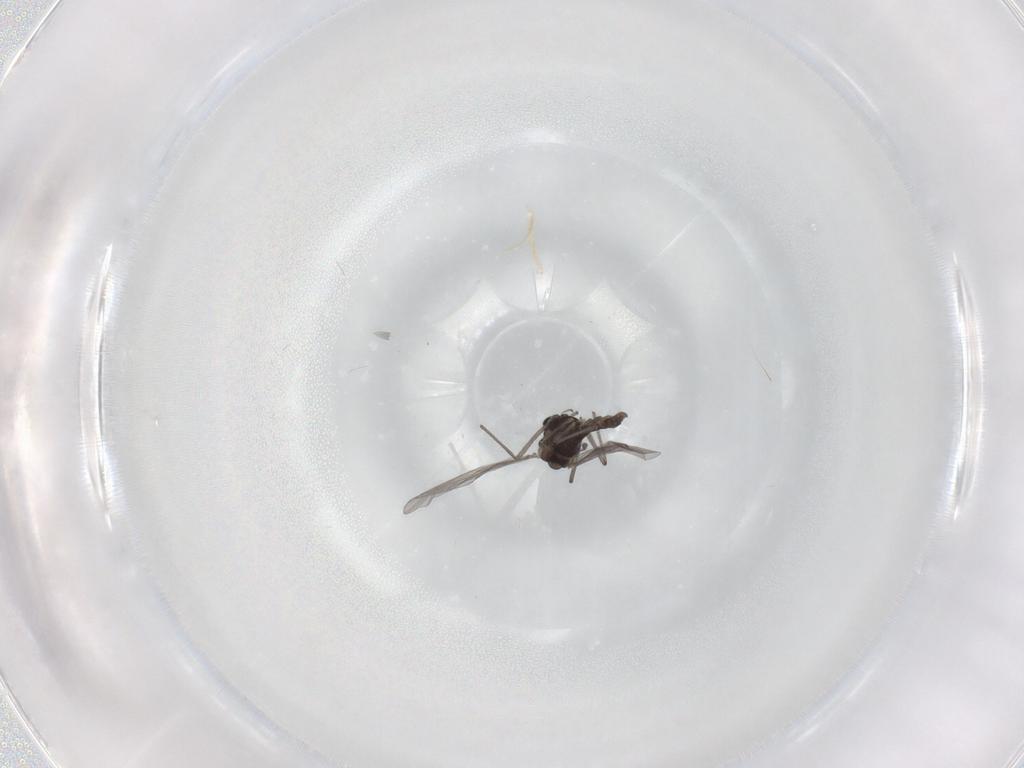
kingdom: Animalia
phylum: Arthropoda
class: Insecta
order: Diptera
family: Chironomidae
